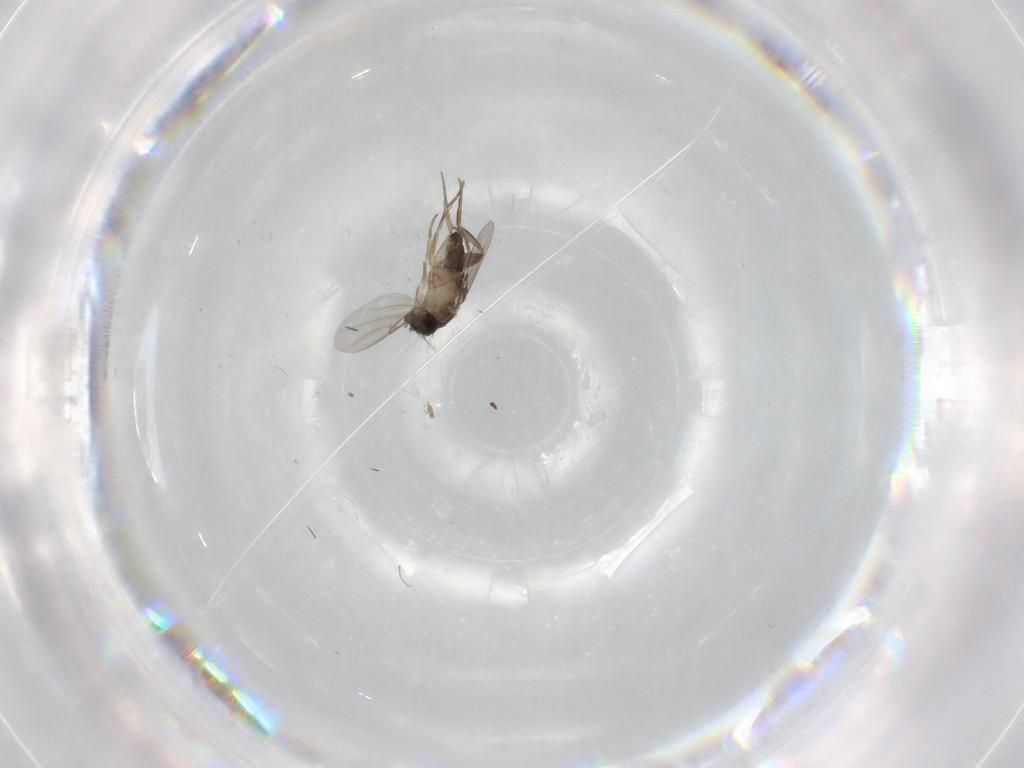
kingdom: Animalia
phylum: Arthropoda
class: Insecta
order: Diptera
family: Phoridae
